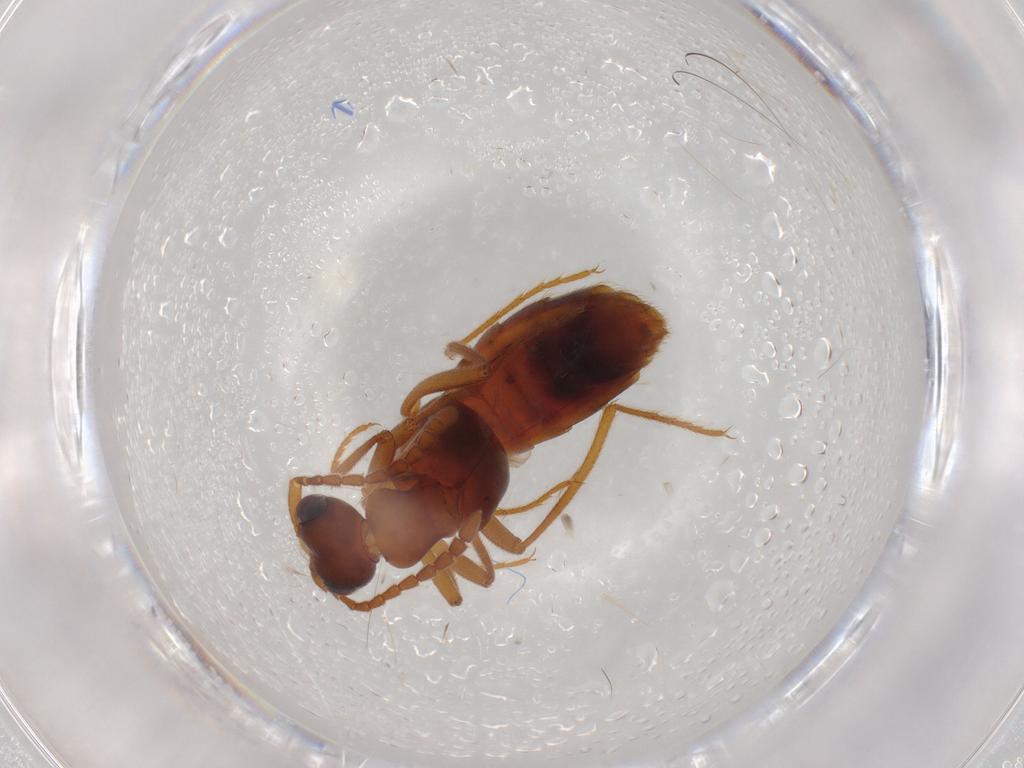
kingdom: Animalia
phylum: Arthropoda
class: Insecta
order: Coleoptera
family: Staphylinidae
